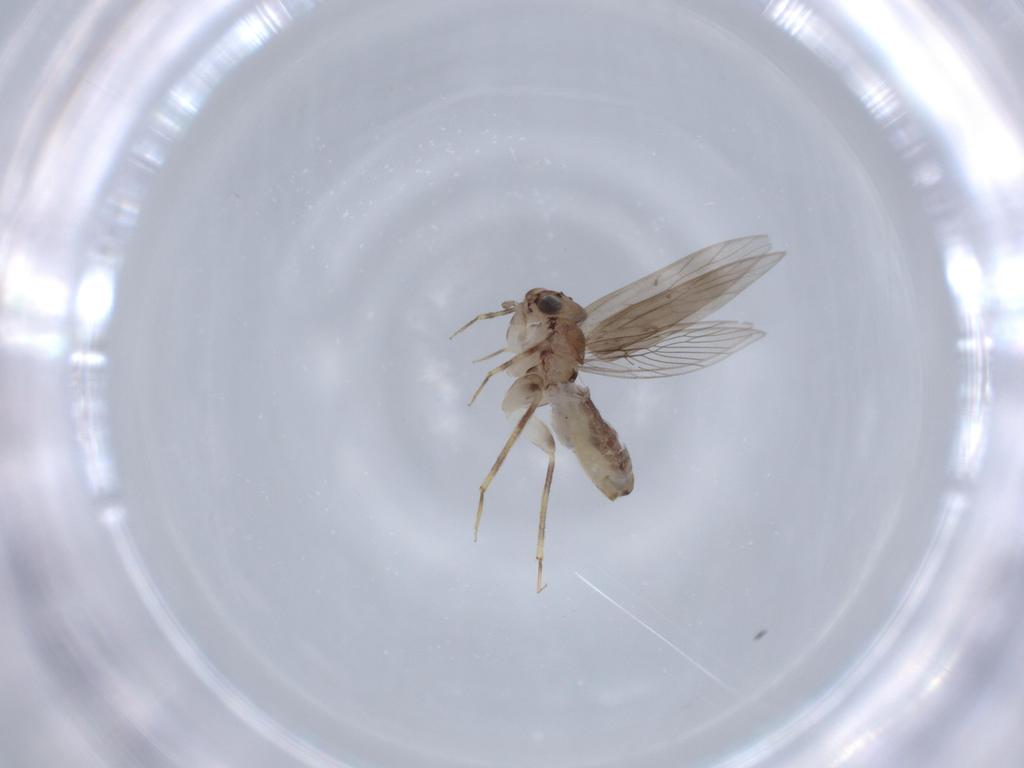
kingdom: Animalia
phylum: Arthropoda
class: Insecta
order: Psocodea
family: Lepidopsocidae
